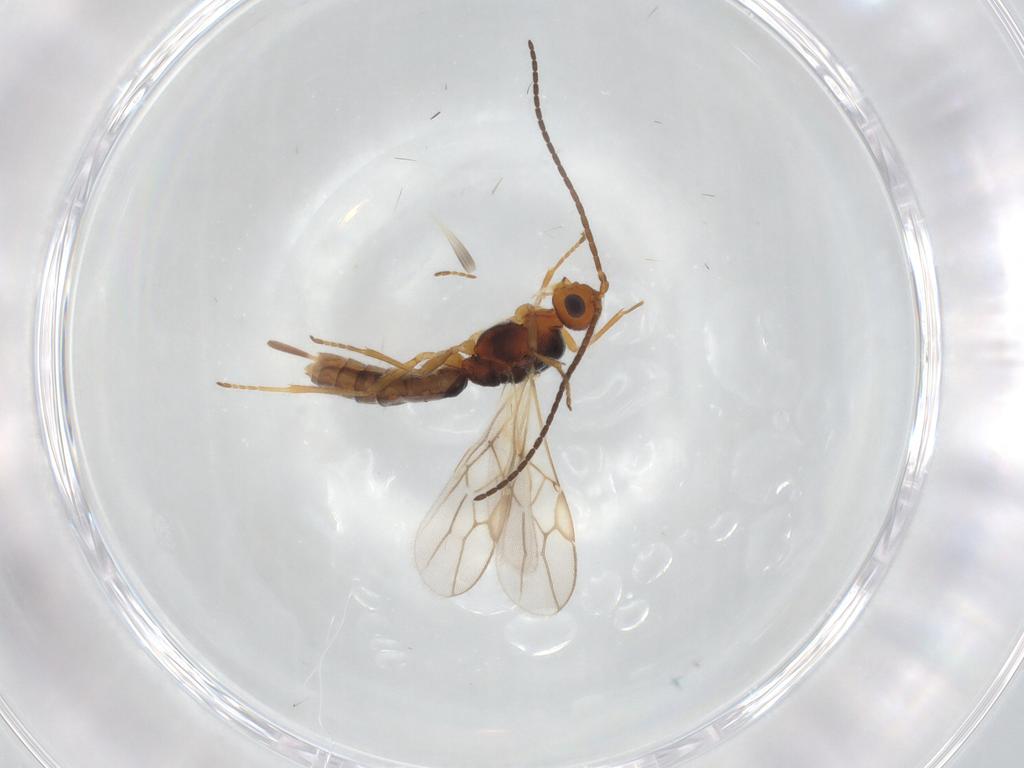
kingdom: Animalia
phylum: Arthropoda
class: Insecta
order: Hymenoptera
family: Braconidae
